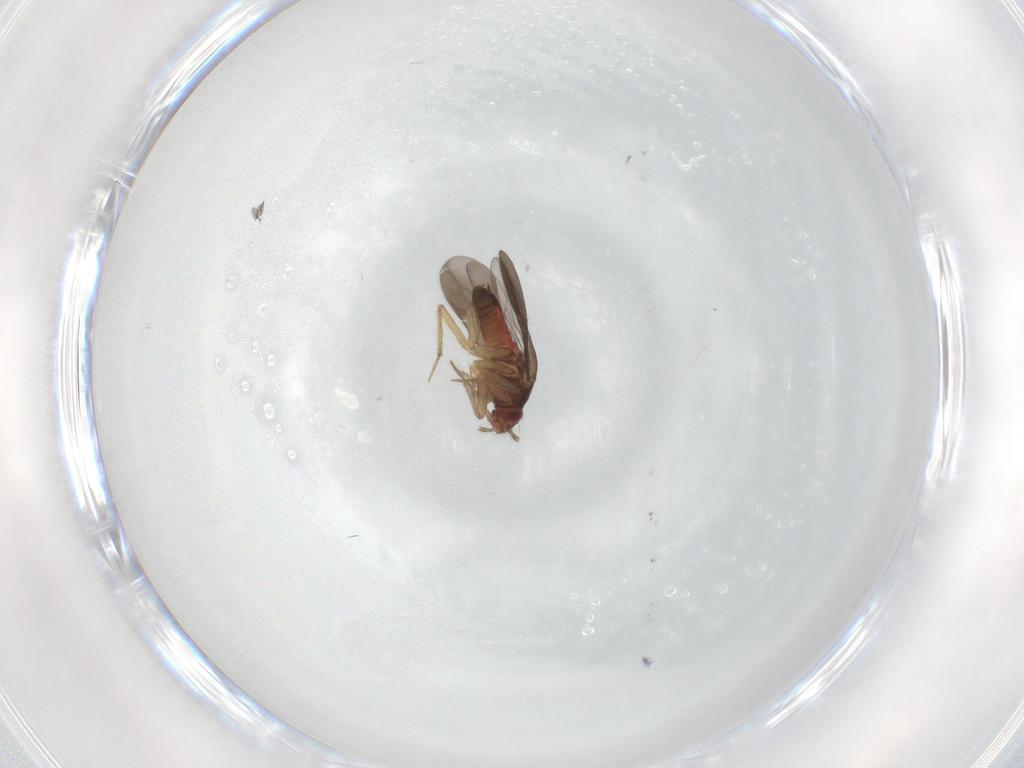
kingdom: Animalia
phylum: Arthropoda
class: Insecta
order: Hemiptera
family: Ceratocombidae
